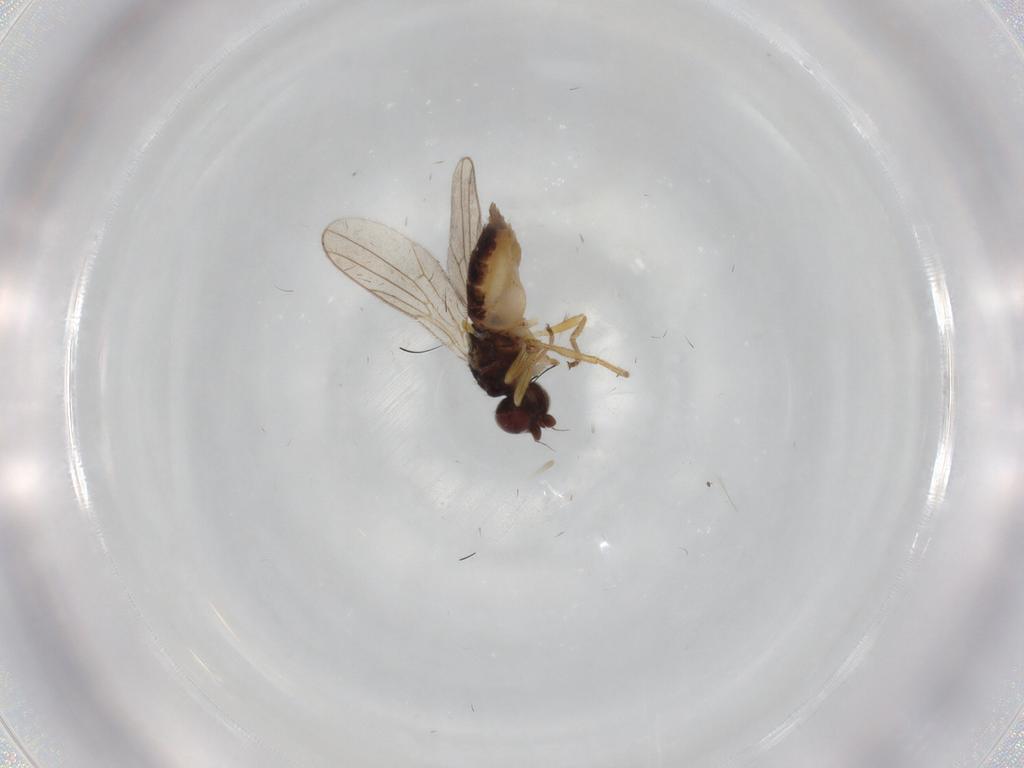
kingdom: Animalia
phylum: Arthropoda
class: Insecta
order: Diptera
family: Chloropidae
